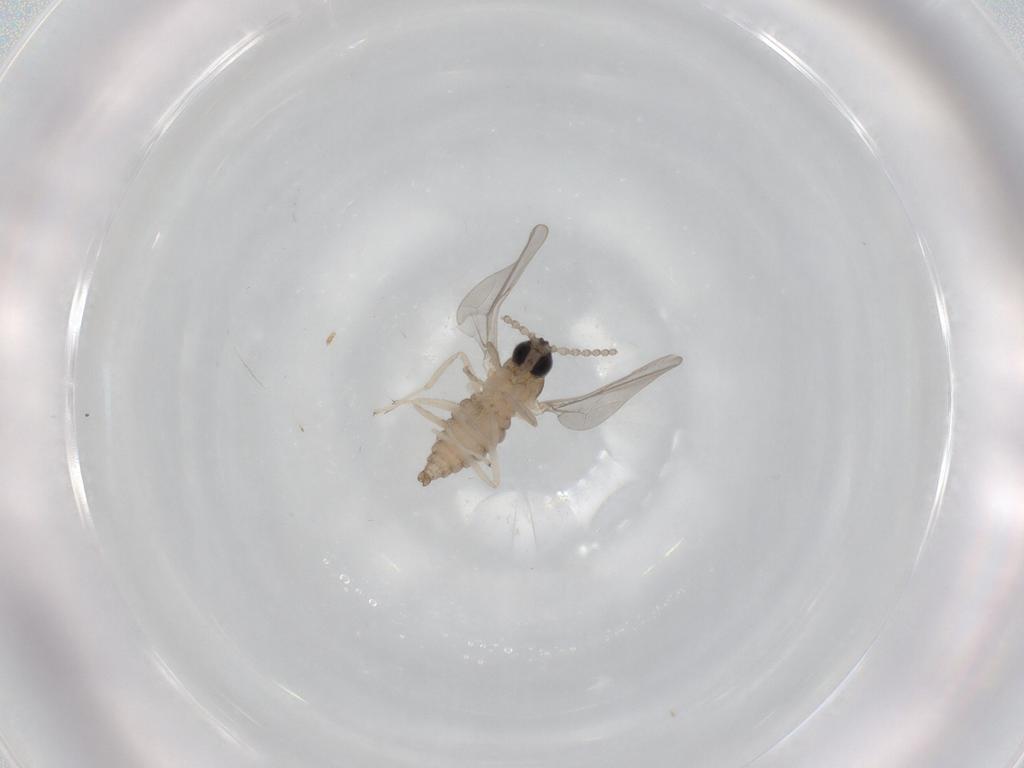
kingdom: Animalia
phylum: Arthropoda
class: Insecta
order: Diptera
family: Cecidomyiidae
